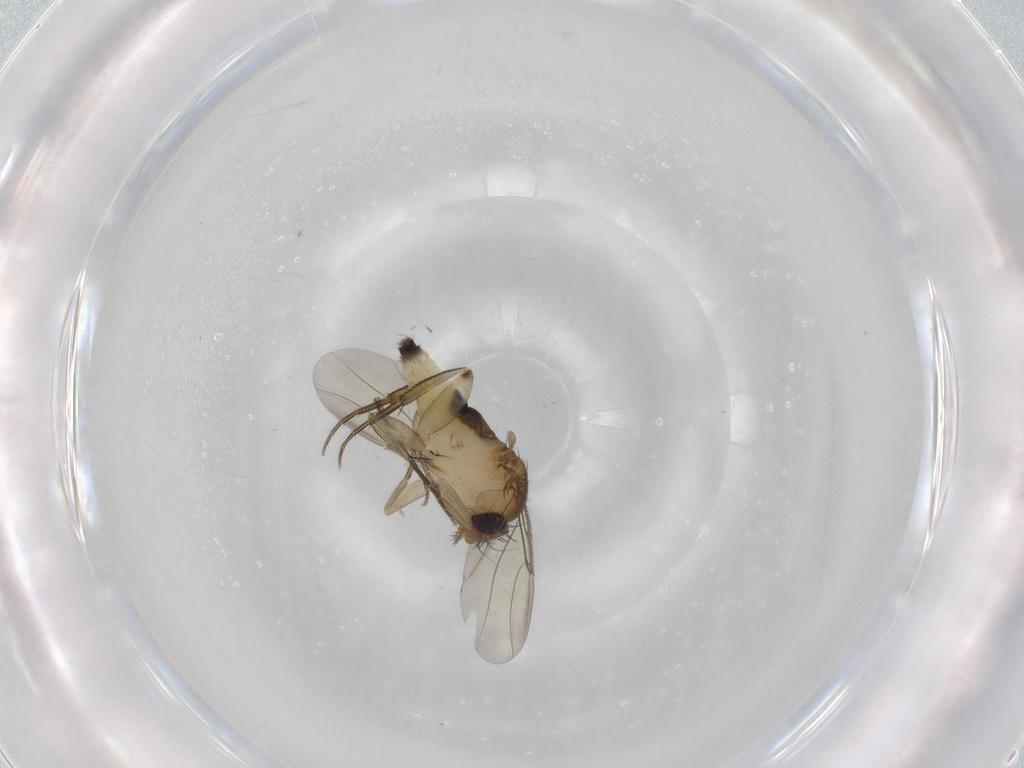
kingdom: Animalia
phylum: Arthropoda
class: Insecta
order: Diptera
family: Phoridae
